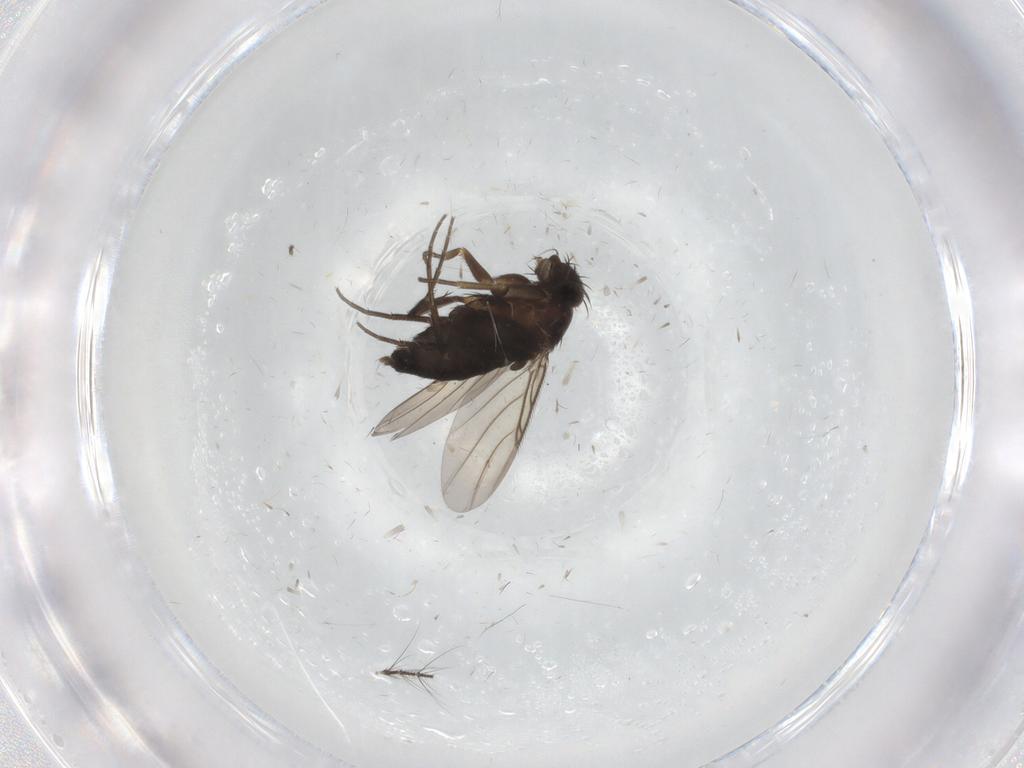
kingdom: Animalia
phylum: Arthropoda
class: Insecta
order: Diptera
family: Phoridae
